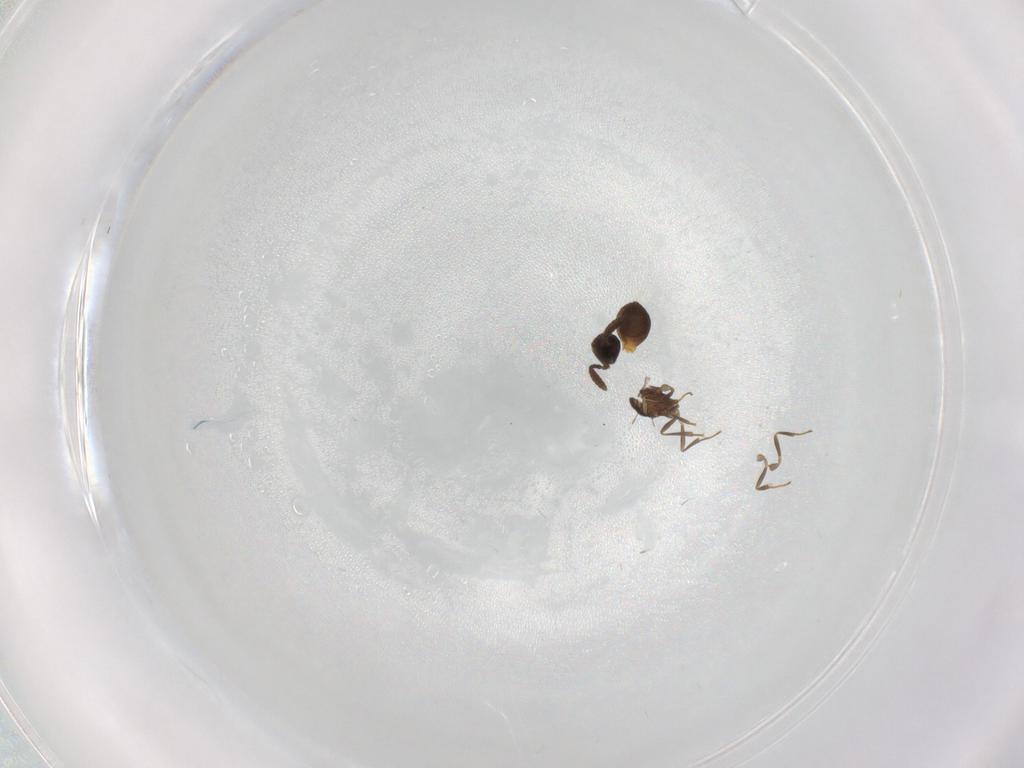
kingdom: Animalia
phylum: Arthropoda
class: Insecta
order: Hymenoptera
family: Scelionidae
